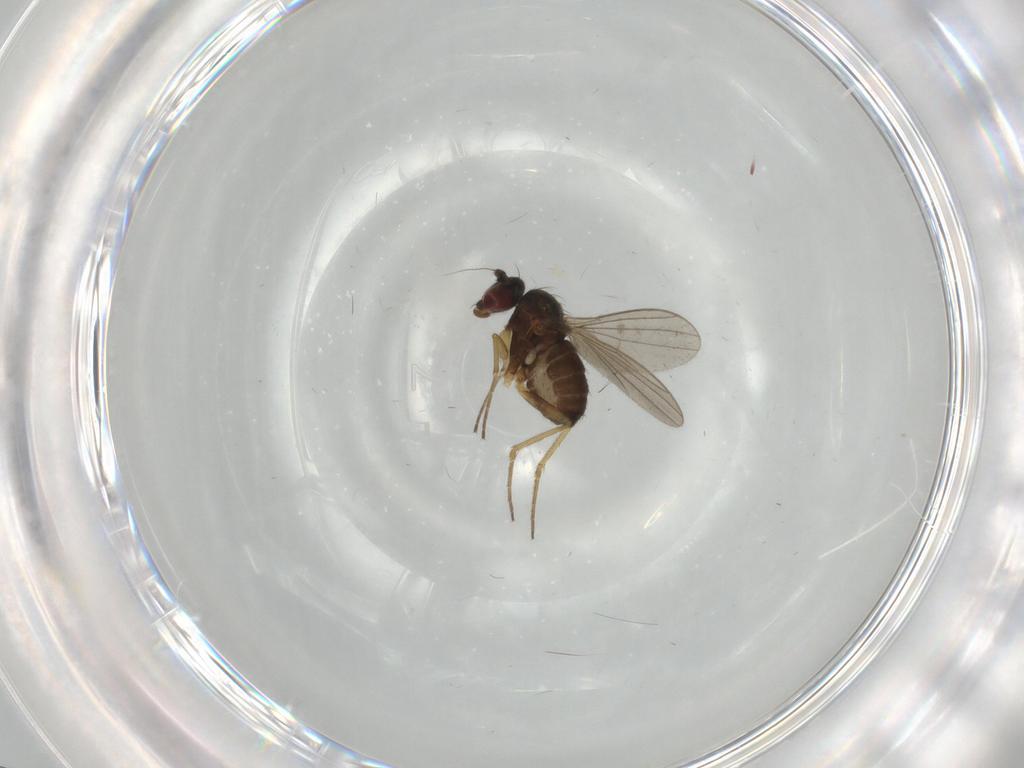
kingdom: Animalia
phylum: Arthropoda
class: Insecta
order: Diptera
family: Dolichopodidae
